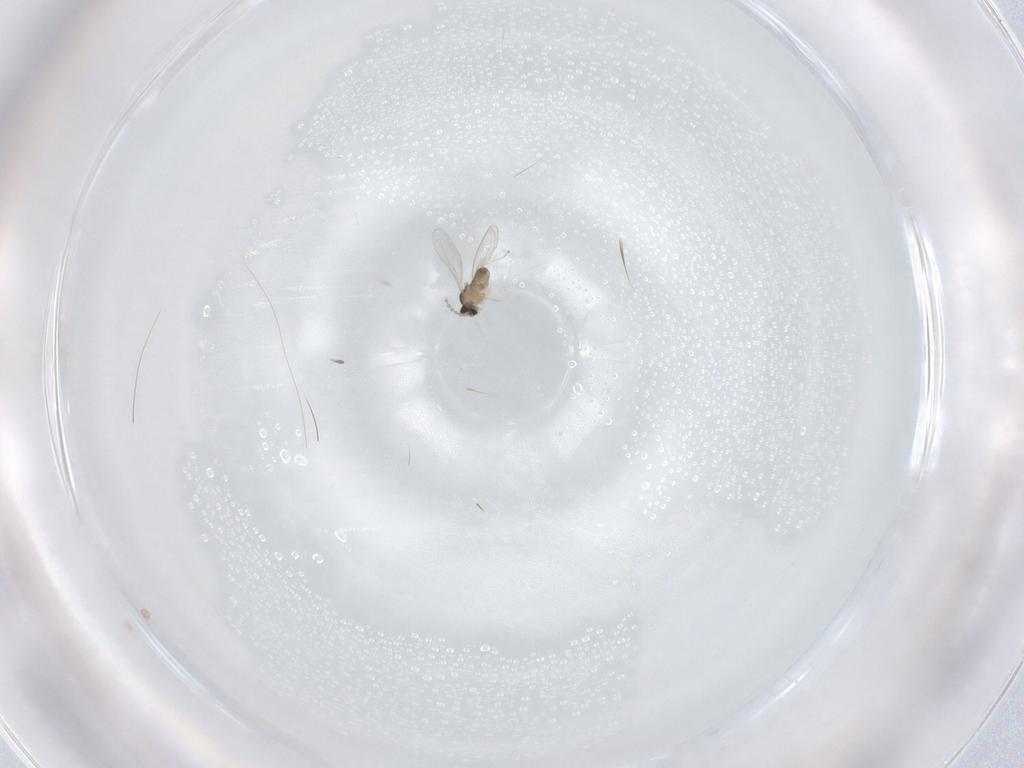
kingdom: Animalia
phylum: Arthropoda
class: Insecta
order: Diptera
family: Cecidomyiidae
